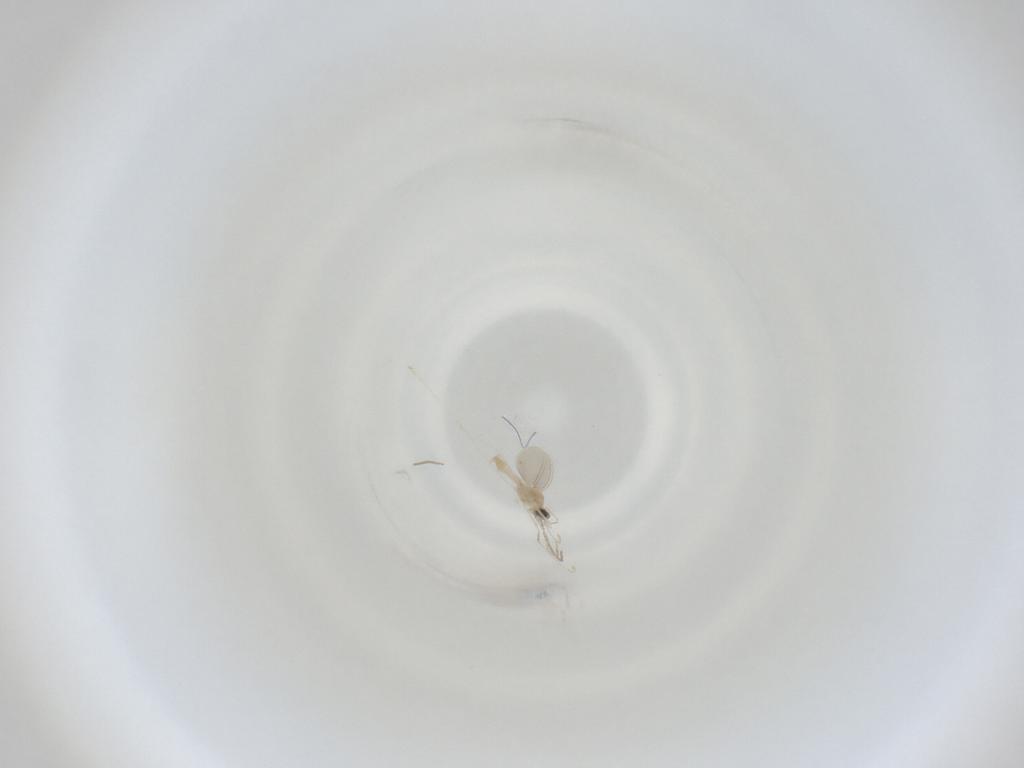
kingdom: Animalia
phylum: Arthropoda
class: Insecta
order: Diptera
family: Cecidomyiidae
